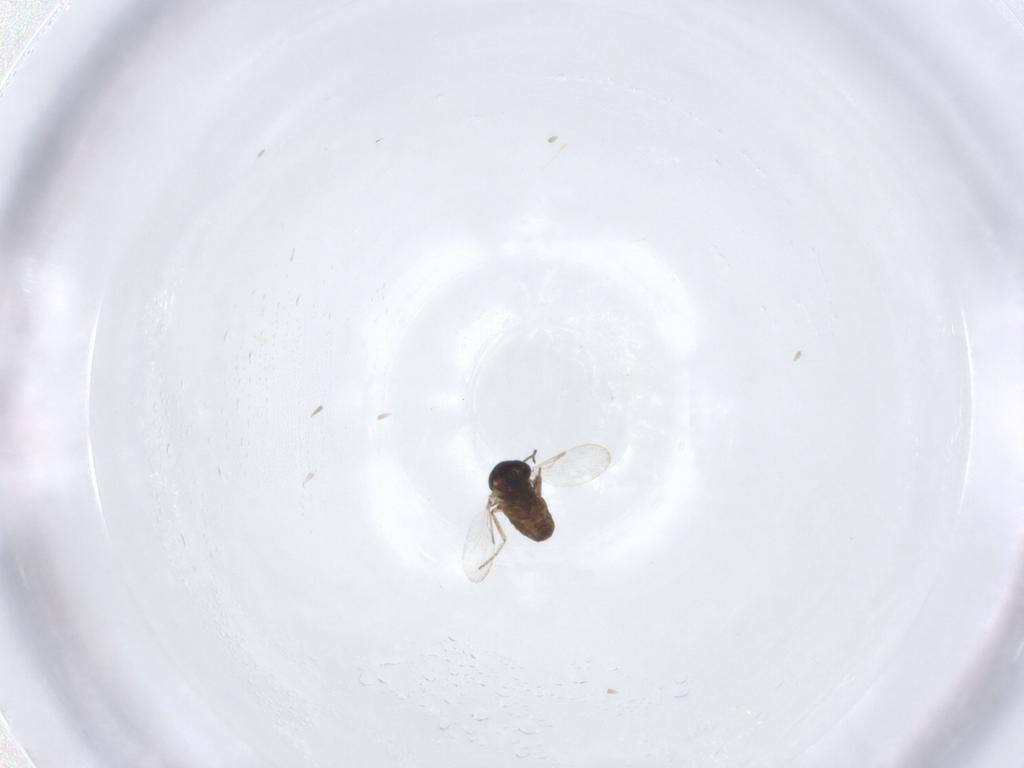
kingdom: Animalia
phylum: Arthropoda
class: Insecta
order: Diptera
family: Ceratopogonidae
